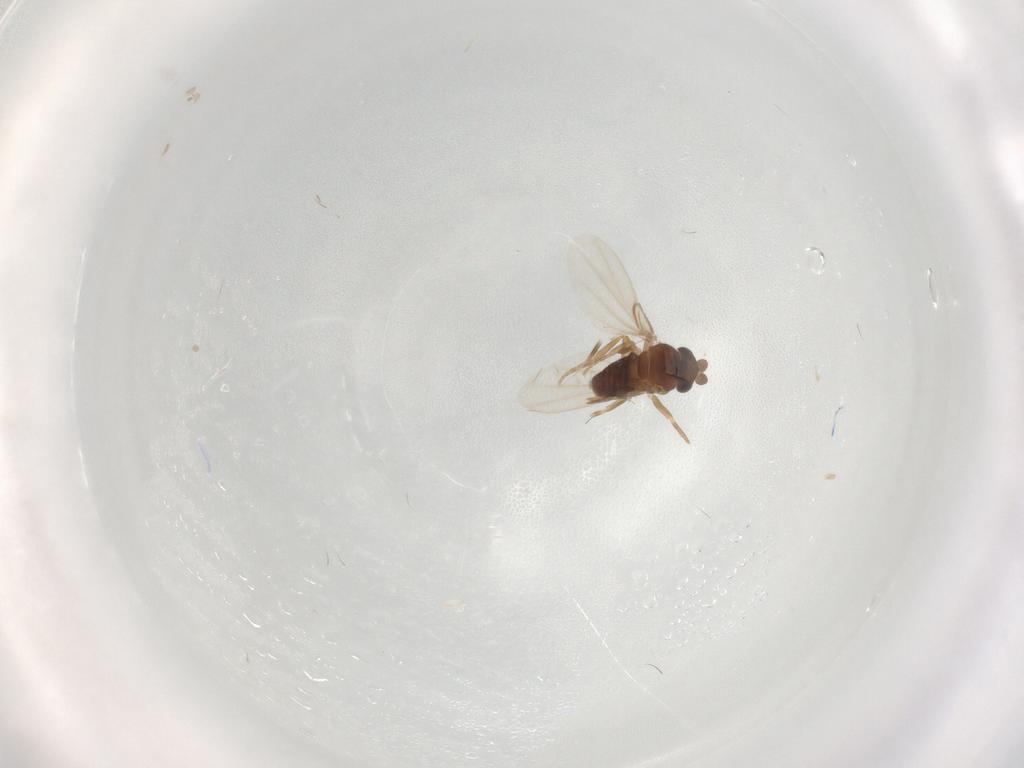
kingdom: Animalia
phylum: Arthropoda
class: Insecta
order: Diptera
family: Phoridae
